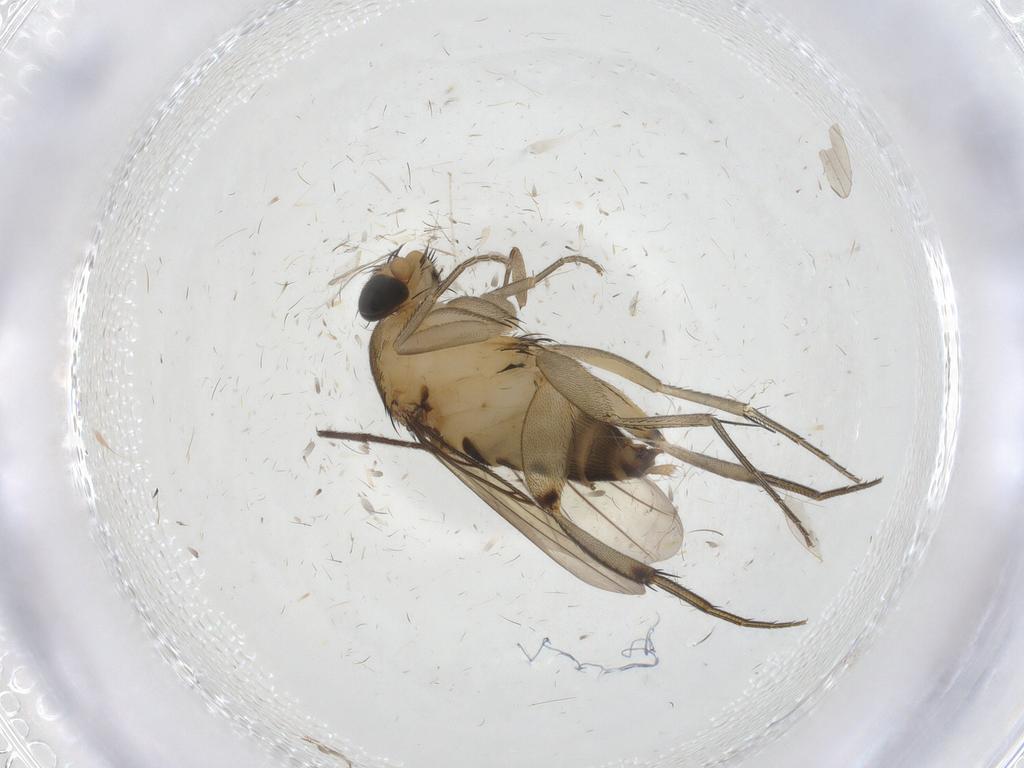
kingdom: Animalia
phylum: Arthropoda
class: Insecta
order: Diptera
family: Phoridae
